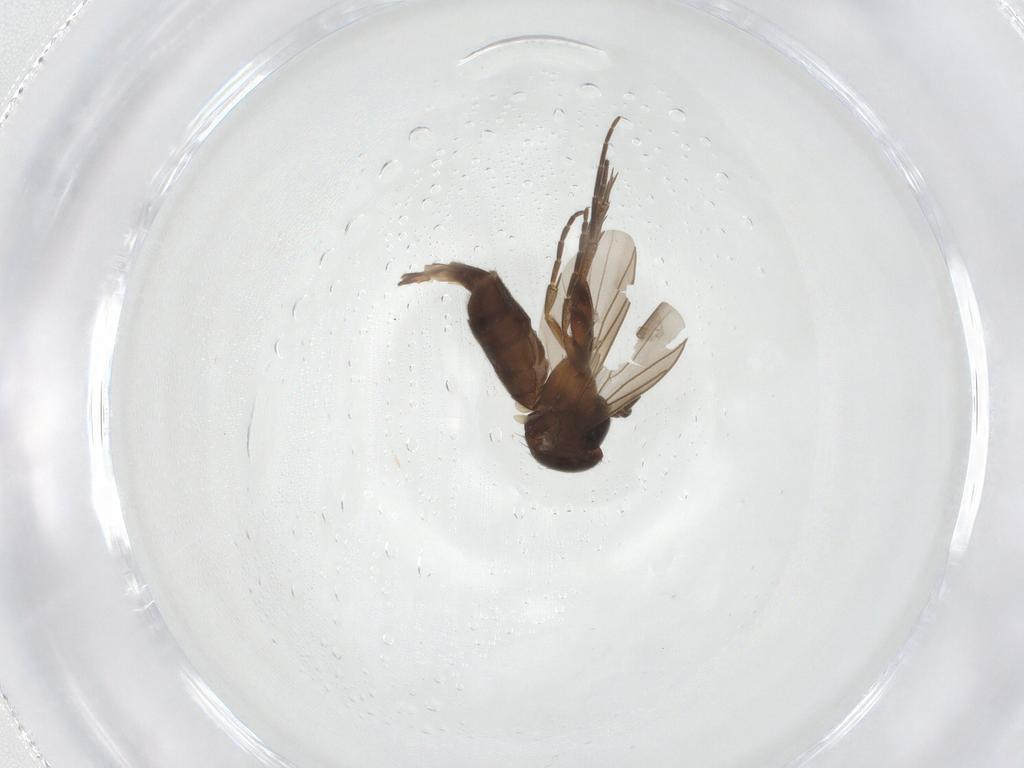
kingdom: Animalia
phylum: Arthropoda
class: Insecta
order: Diptera
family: Mycetophilidae
